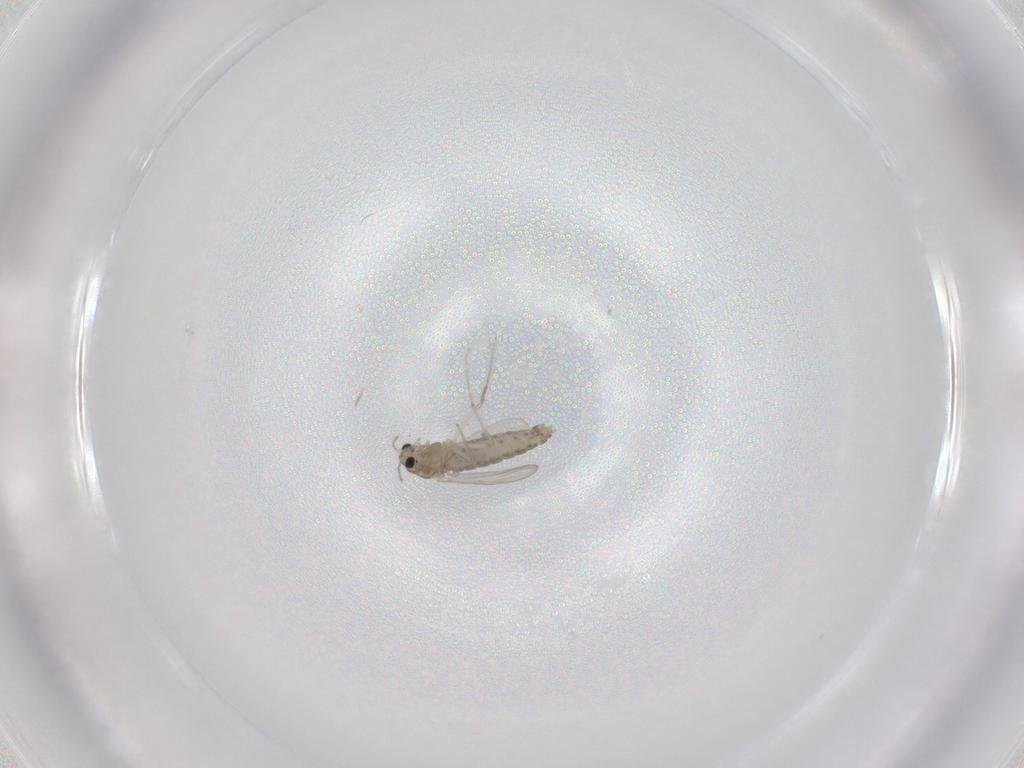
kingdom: Animalia
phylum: Arthropoda
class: Insecta
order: Diptera
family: Chironomidae
